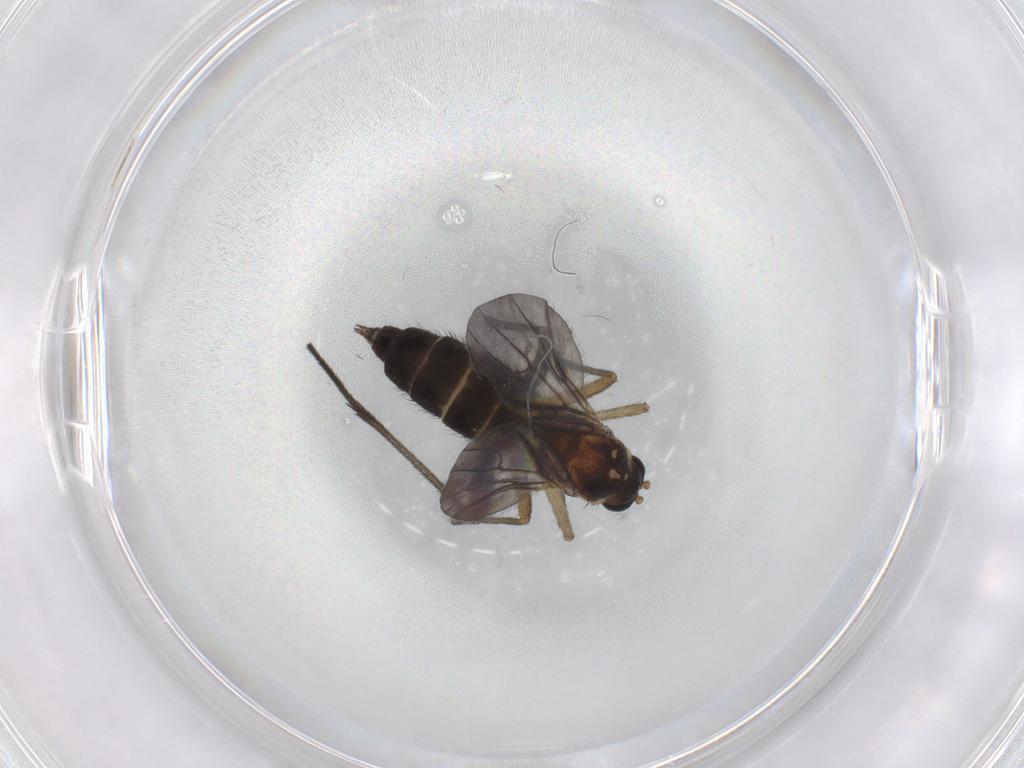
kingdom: Animalia
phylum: Arthropoda
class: Insecta
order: Diptera
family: Sciaridae
